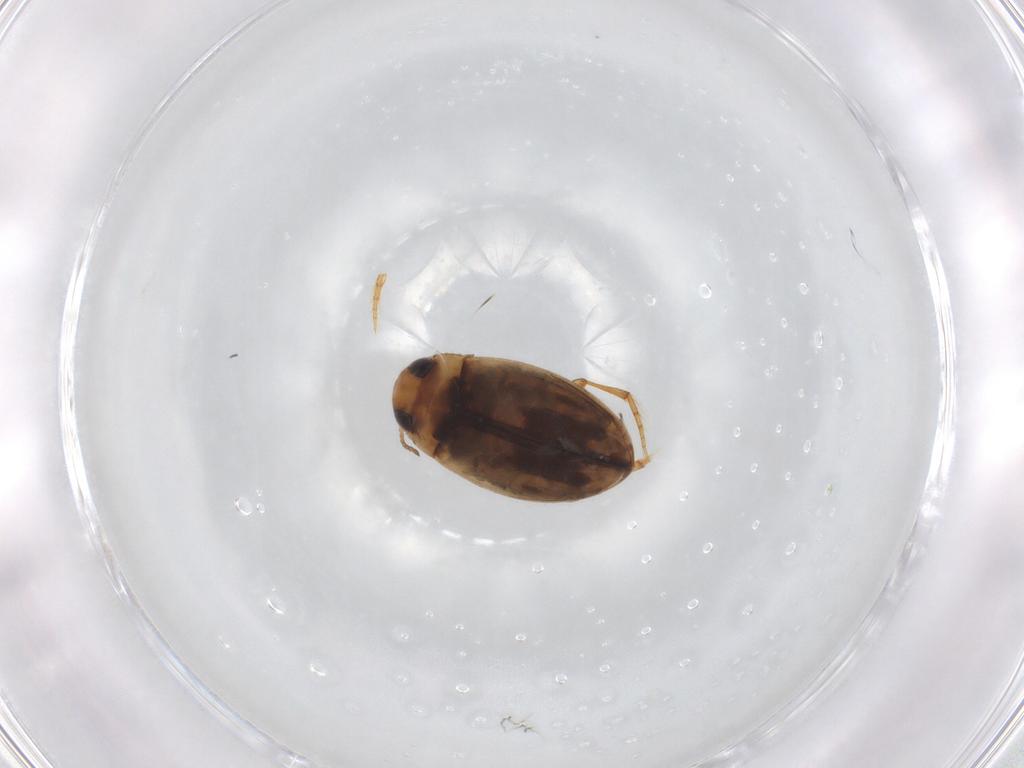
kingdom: Animalia
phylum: Arthropoda
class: Insecta
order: Coleoptera
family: Dytiscidae
